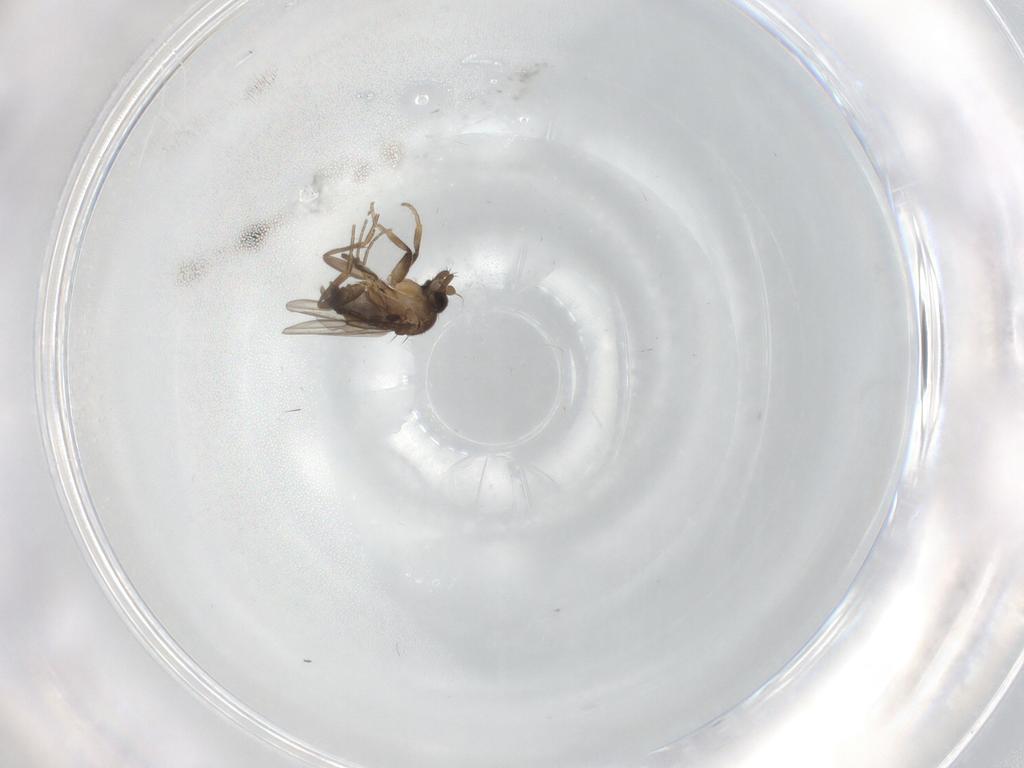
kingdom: Animalia
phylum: Arthropoda
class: Insecta
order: Diptera
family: Phoridae
